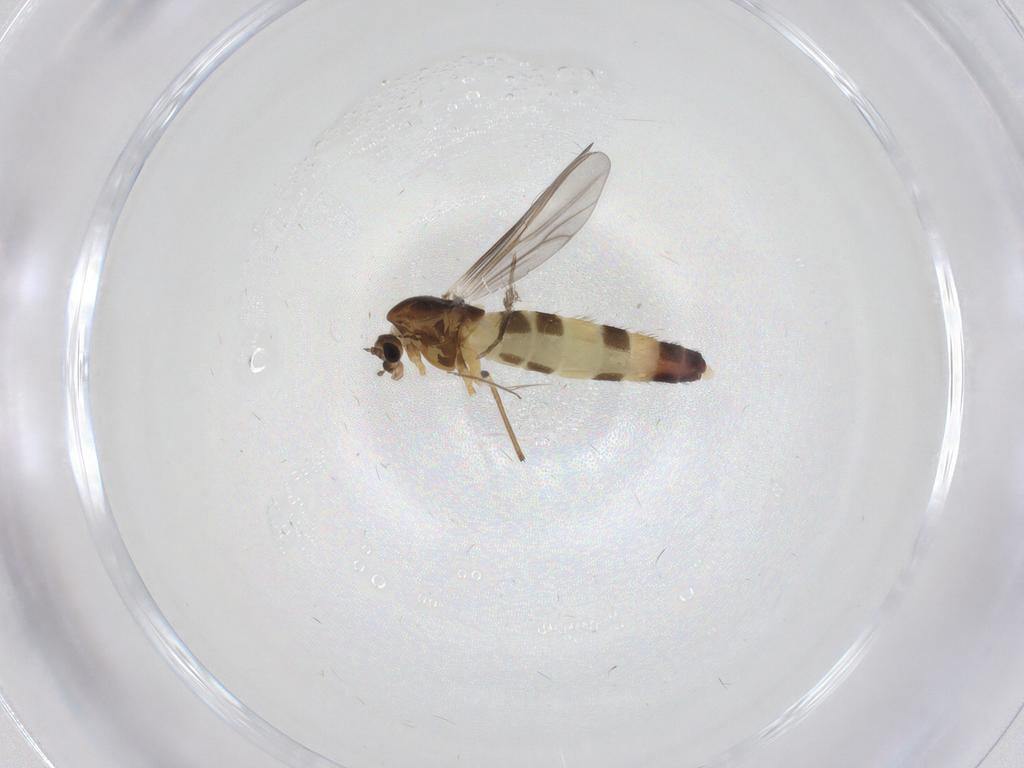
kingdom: Animalia
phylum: Arthropoda
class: Insecta
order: Diptera
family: Chironomidae
